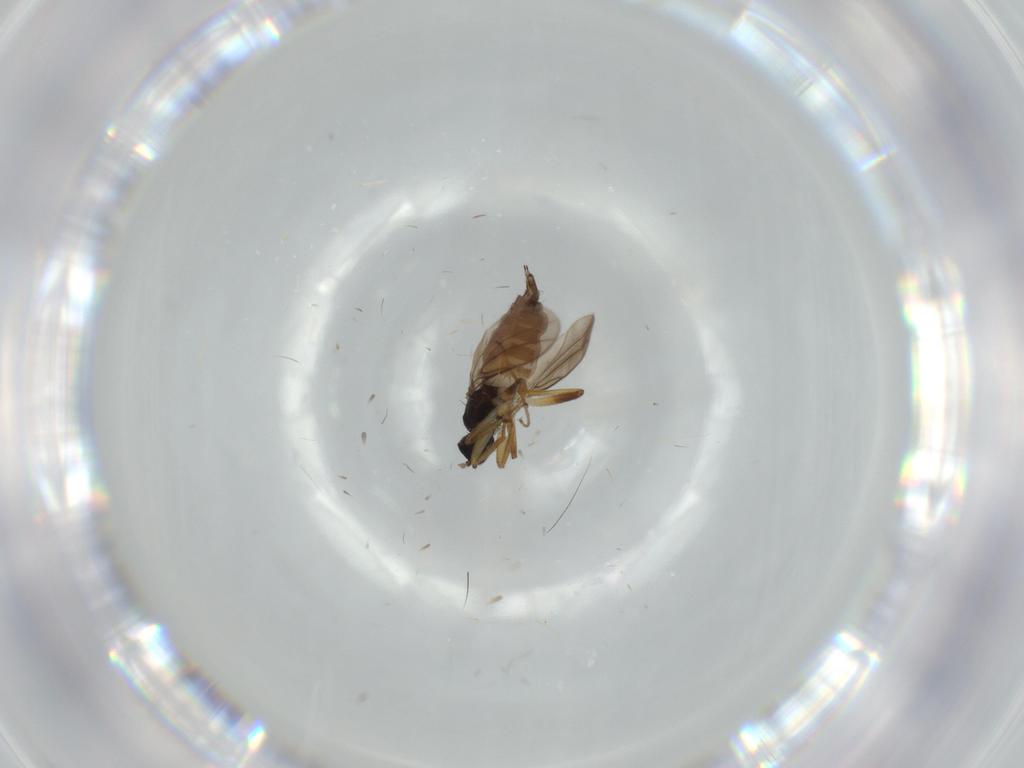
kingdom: Animalia
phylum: Arthropoda
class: Insecta
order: Diptera
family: Hybotidae
